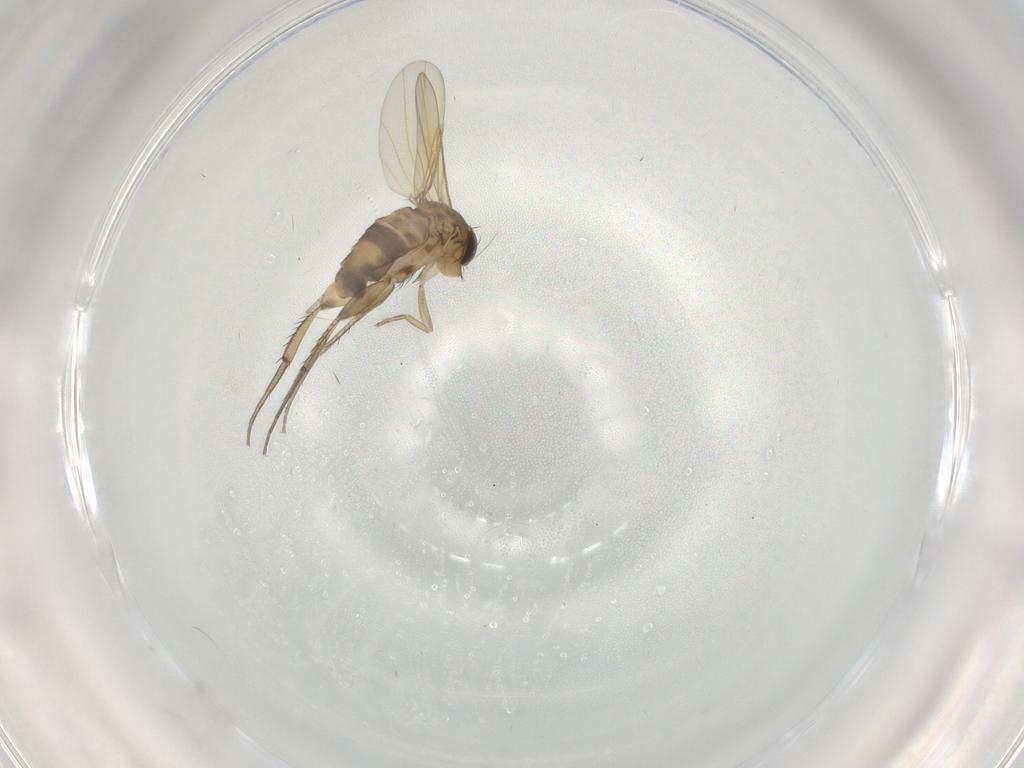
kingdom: Animalia
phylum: Arthropoda
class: Insecta
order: Diptera
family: Phoridae
